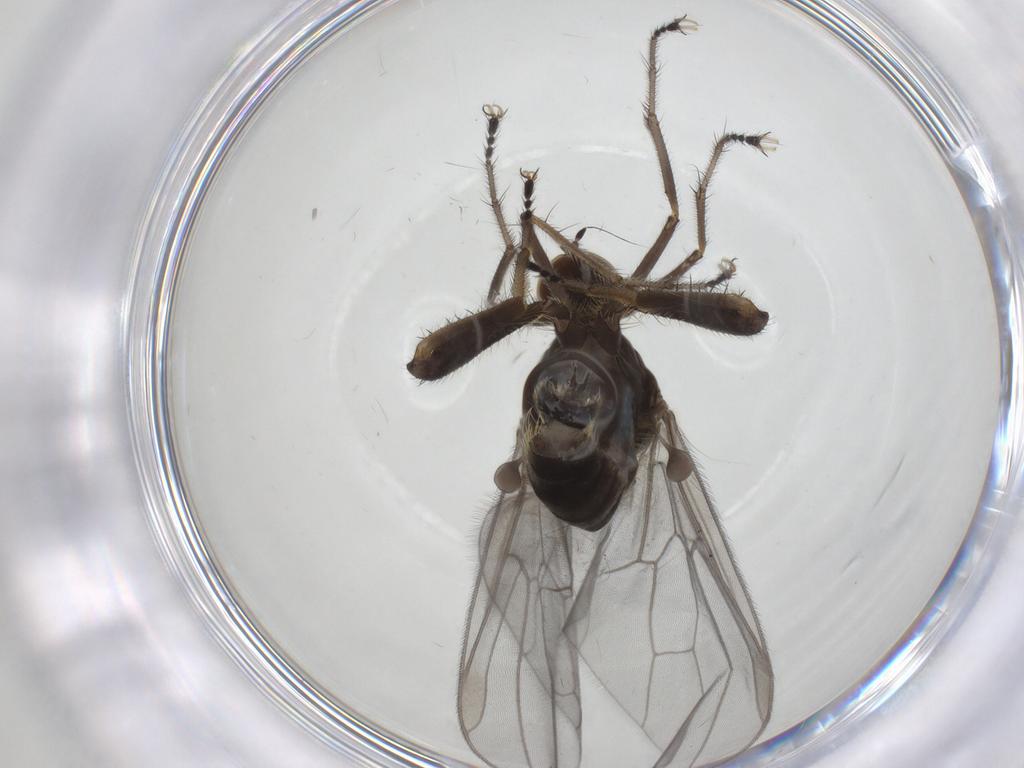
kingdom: Animalia
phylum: Arthropoda
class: Insecta
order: Diptera
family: Hybotidae
